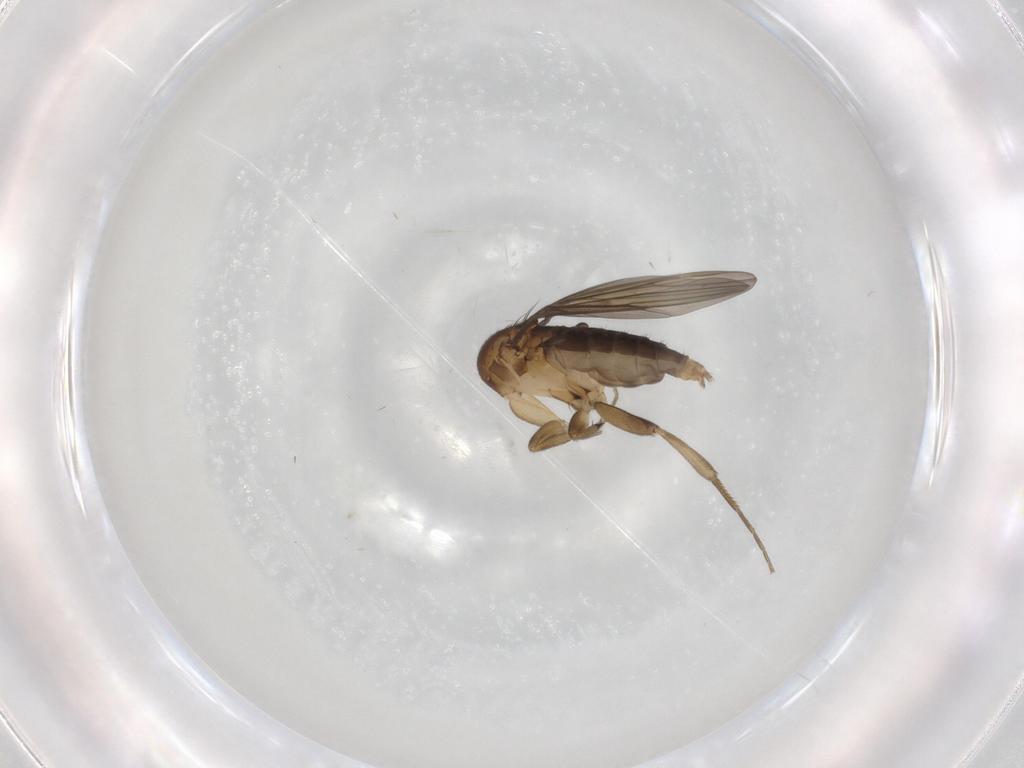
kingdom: Animalia
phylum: Arthropoda
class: Insecta
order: Diptera
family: Phoridae
